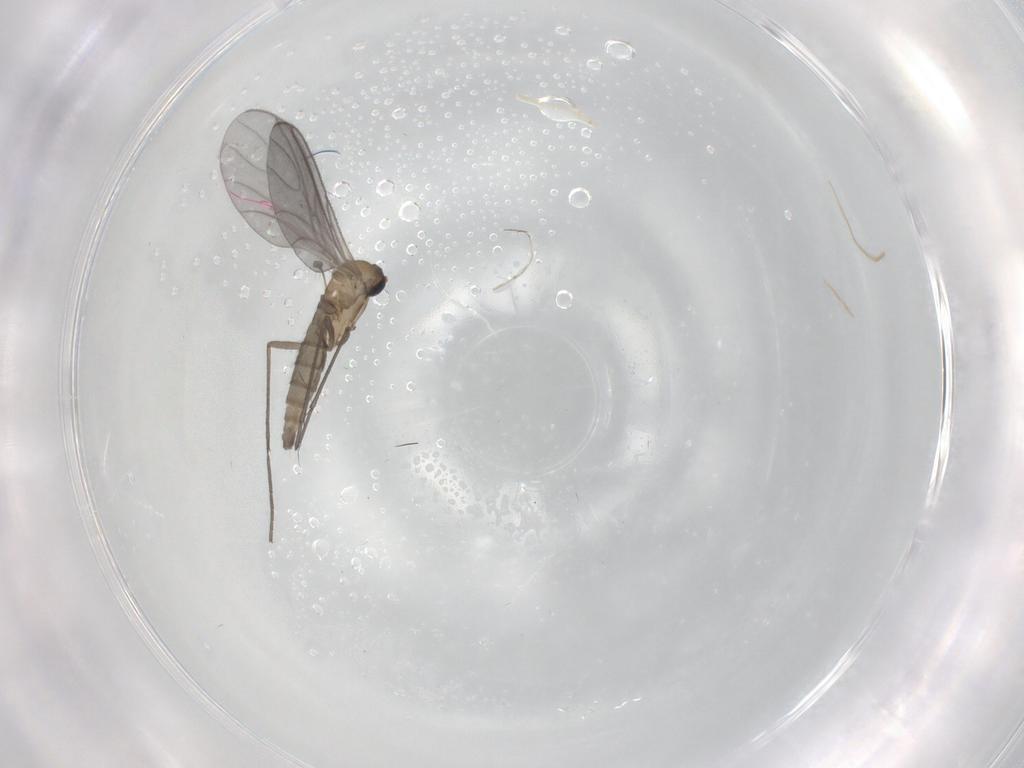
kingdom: Animalia
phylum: Arthropoda
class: Insecta
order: Diptera
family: Sciaridae
